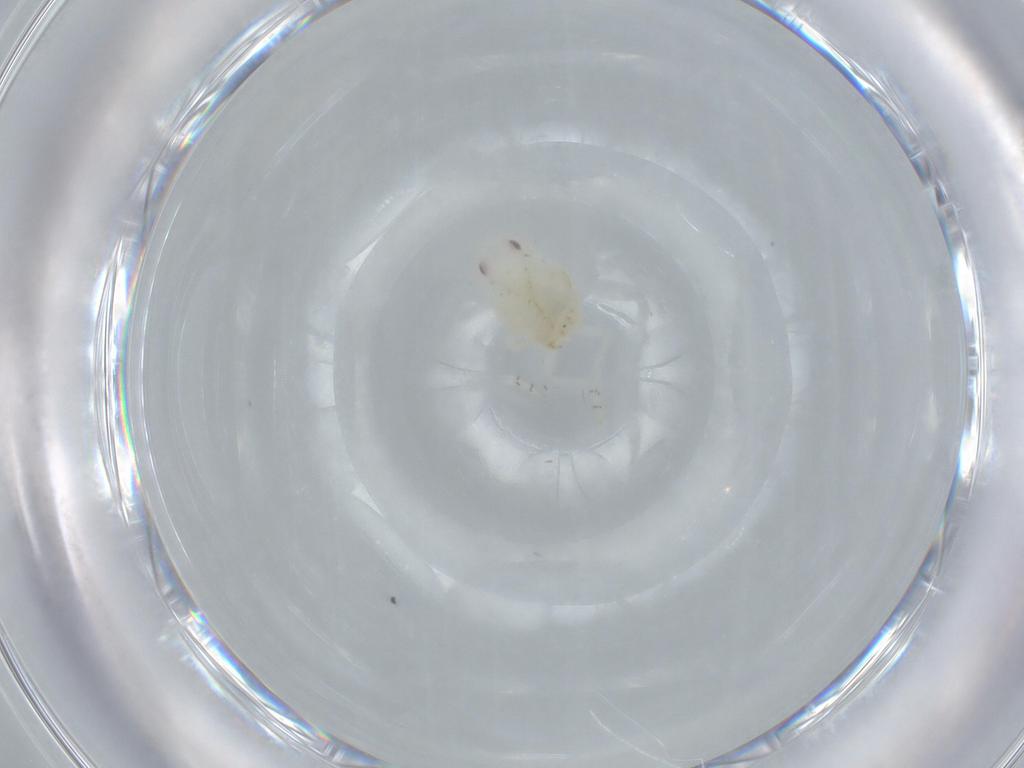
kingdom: Animalia
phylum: Arthropoda
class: Insecta
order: Hemiptera
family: Flatidae
